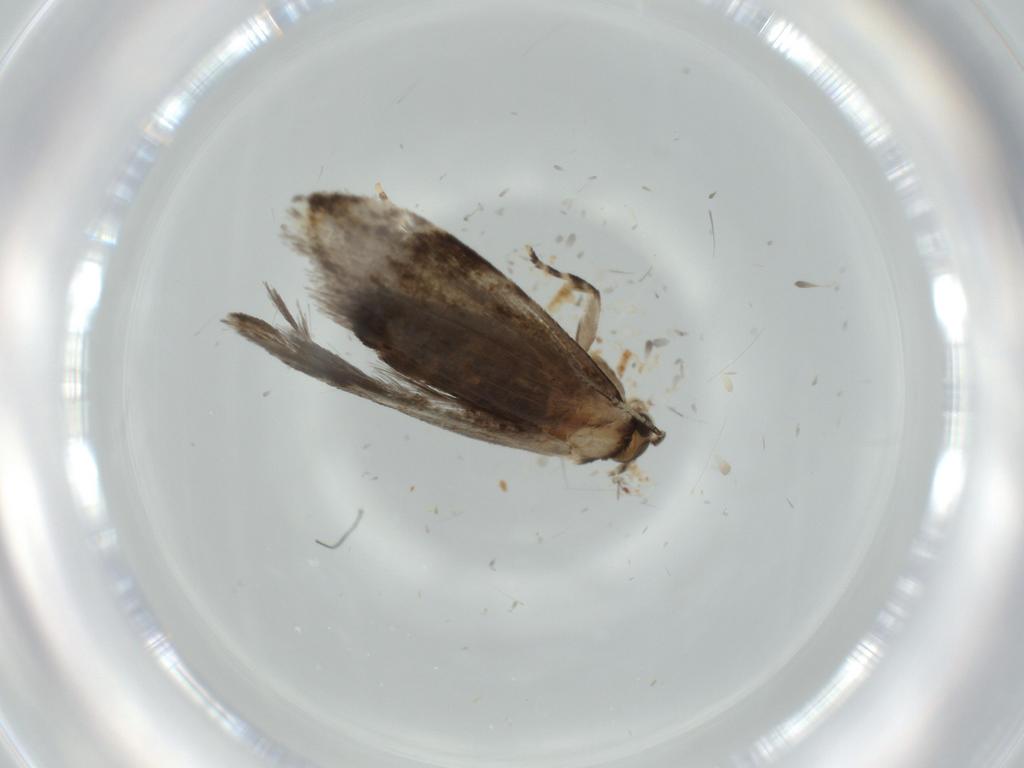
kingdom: Animalia
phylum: Arthropoda
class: Insecta
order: Lepidoptera
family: Tineidae
